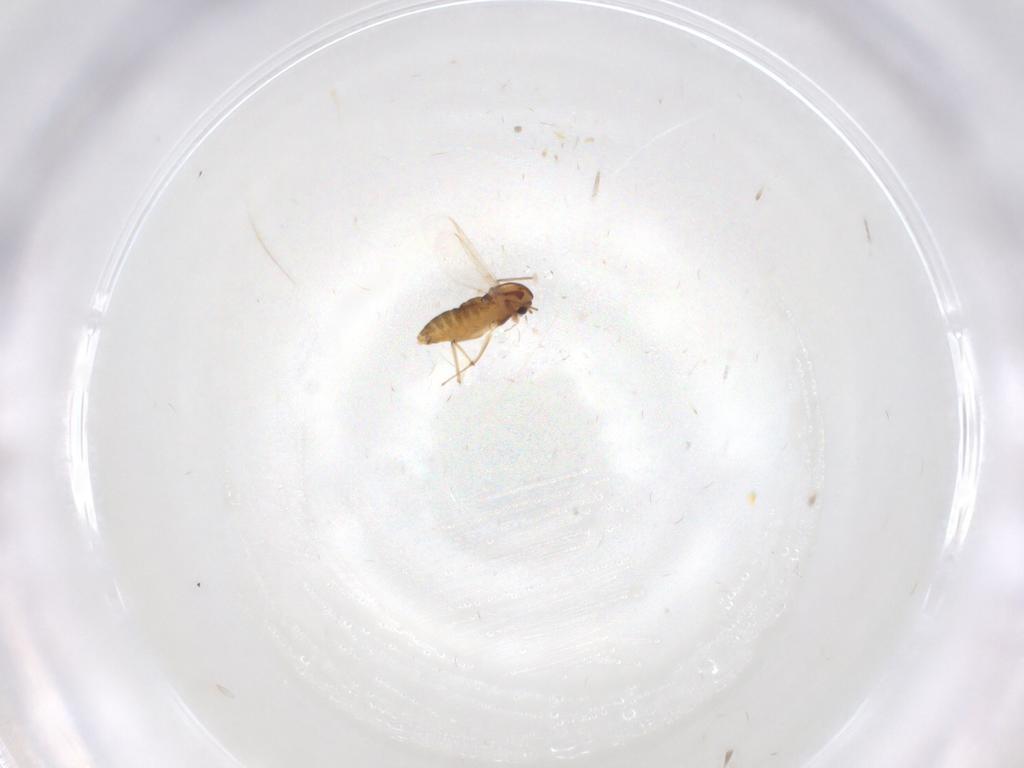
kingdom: Animalia
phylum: Arthropoda
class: Insecta
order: Diptera
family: Chironomidae
